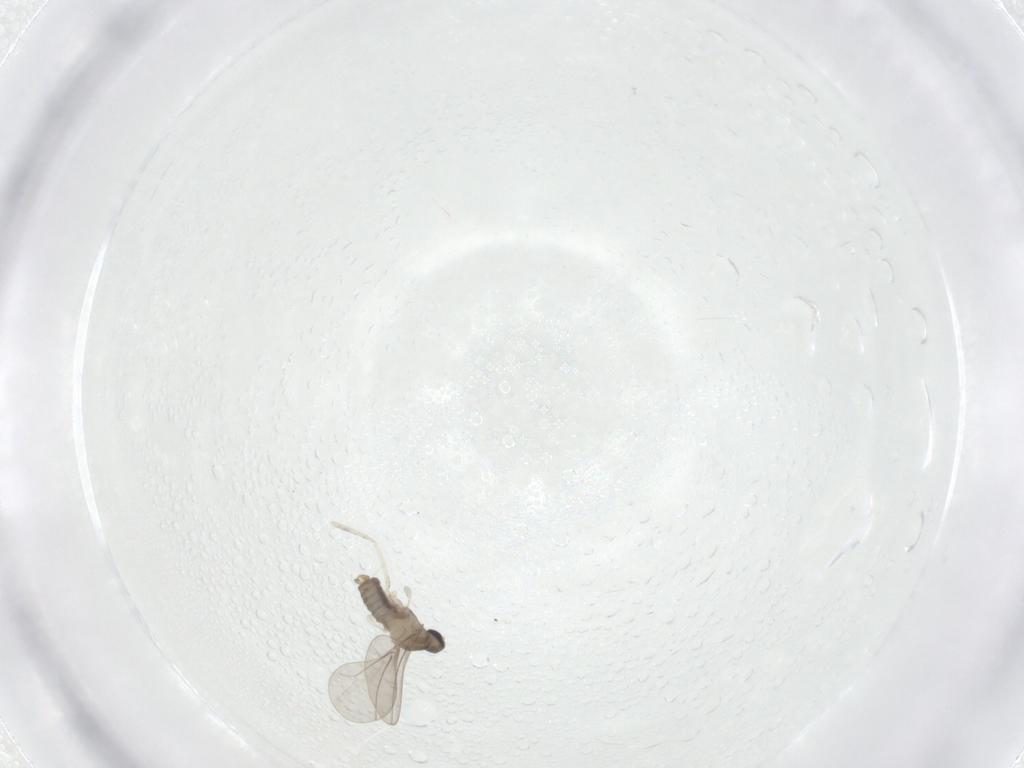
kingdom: Animalia
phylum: Arthropoda
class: Insecta
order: Diptera
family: Cecidomyiidae
